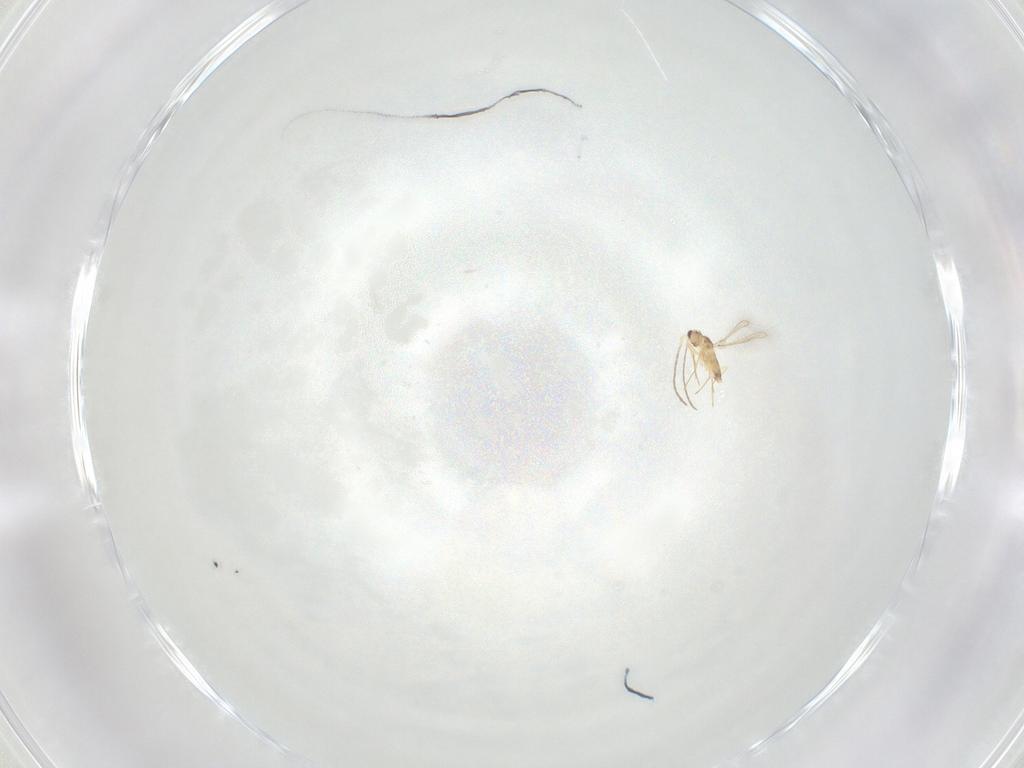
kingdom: Animalia
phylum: Arthropoda
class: Insecta
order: Hymenoptera
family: Mymaridae
